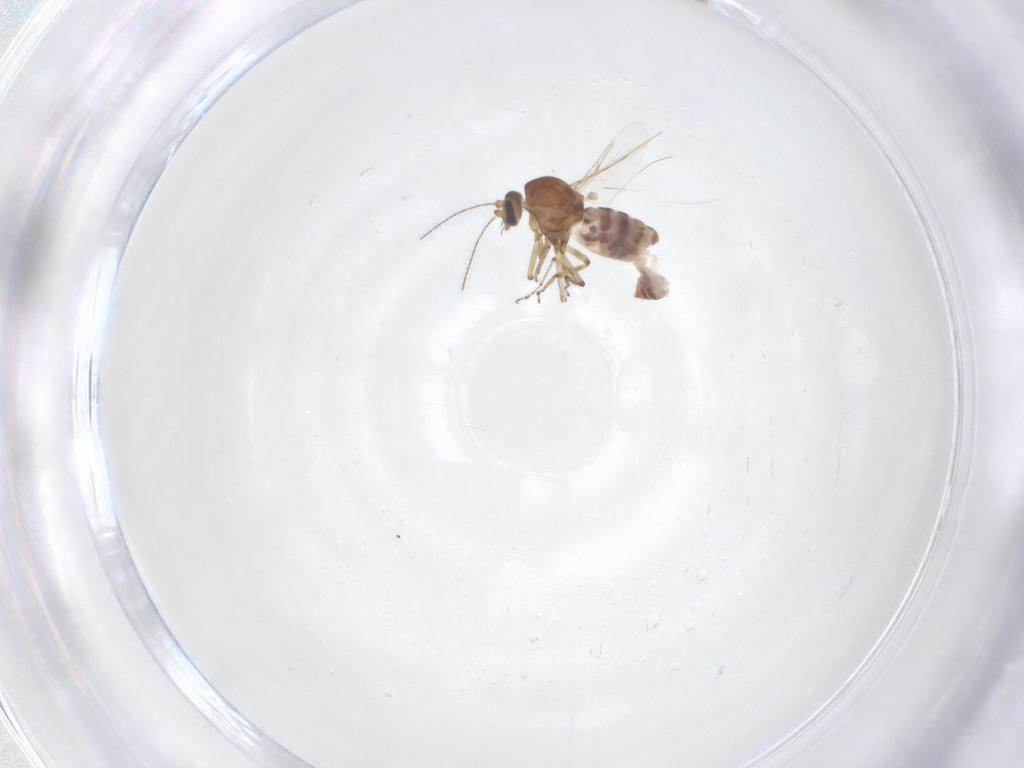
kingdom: Animalia
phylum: Arthropoda
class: Insecta
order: Diptera
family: Ceratopogonidae
